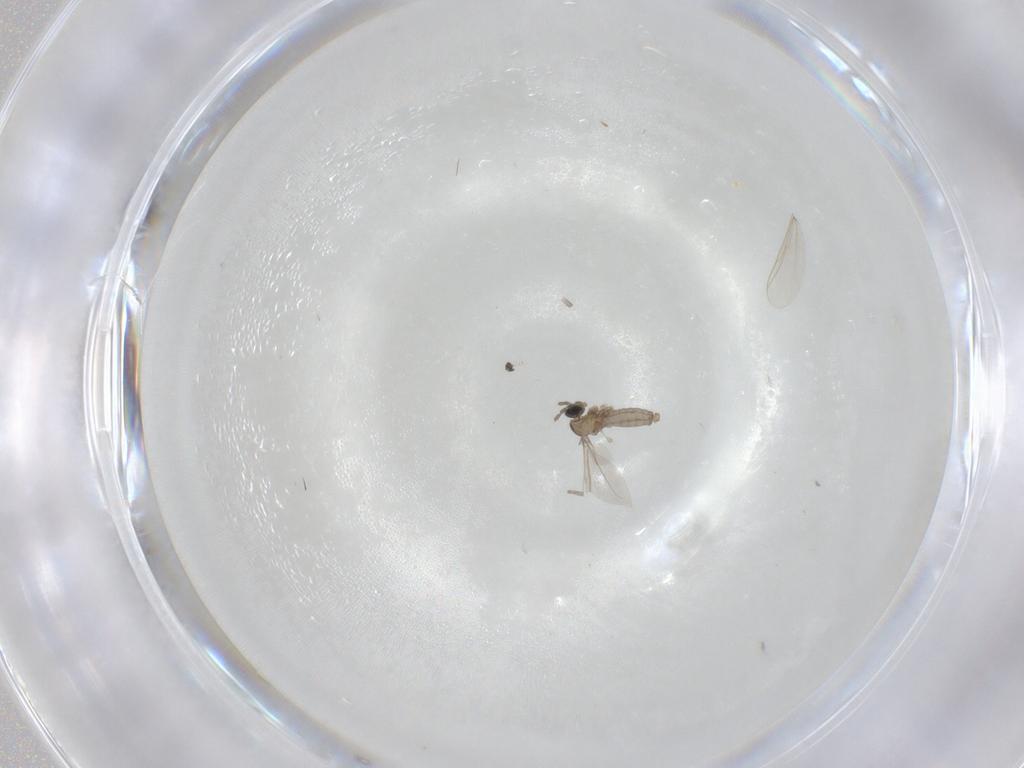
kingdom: Animalia
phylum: Arthropoda
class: Insecta
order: Diptera
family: Cecidomyiidae
